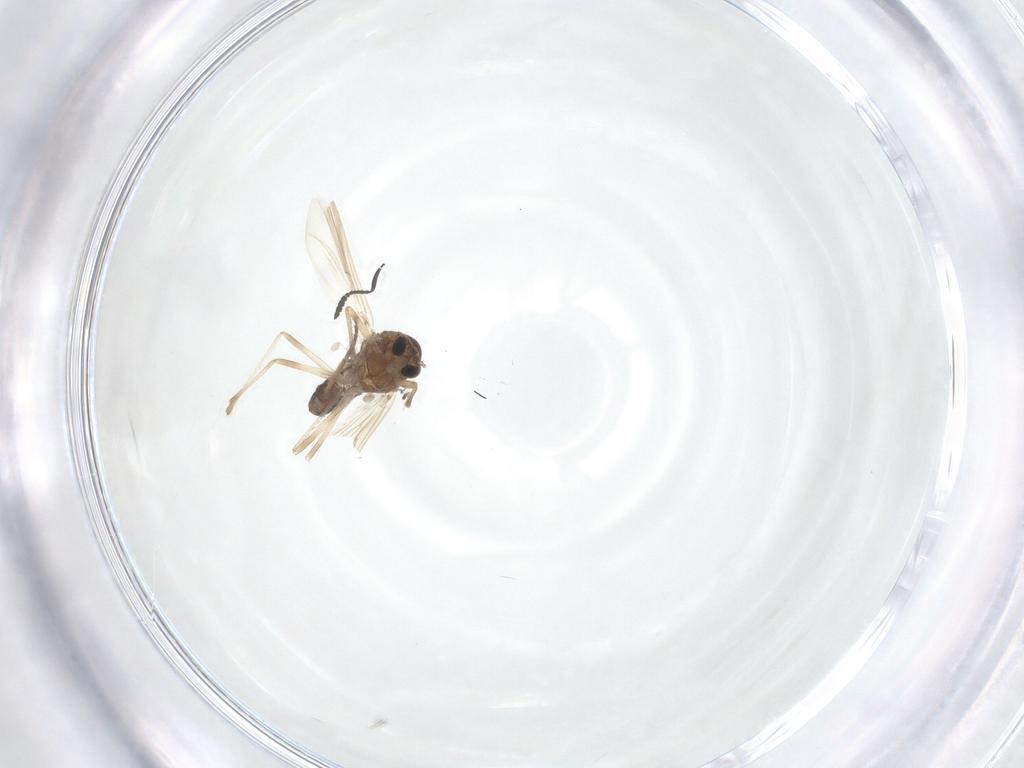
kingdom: Animalia
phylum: Arthropoda
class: Insecta
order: Diptera
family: Chironomidae
